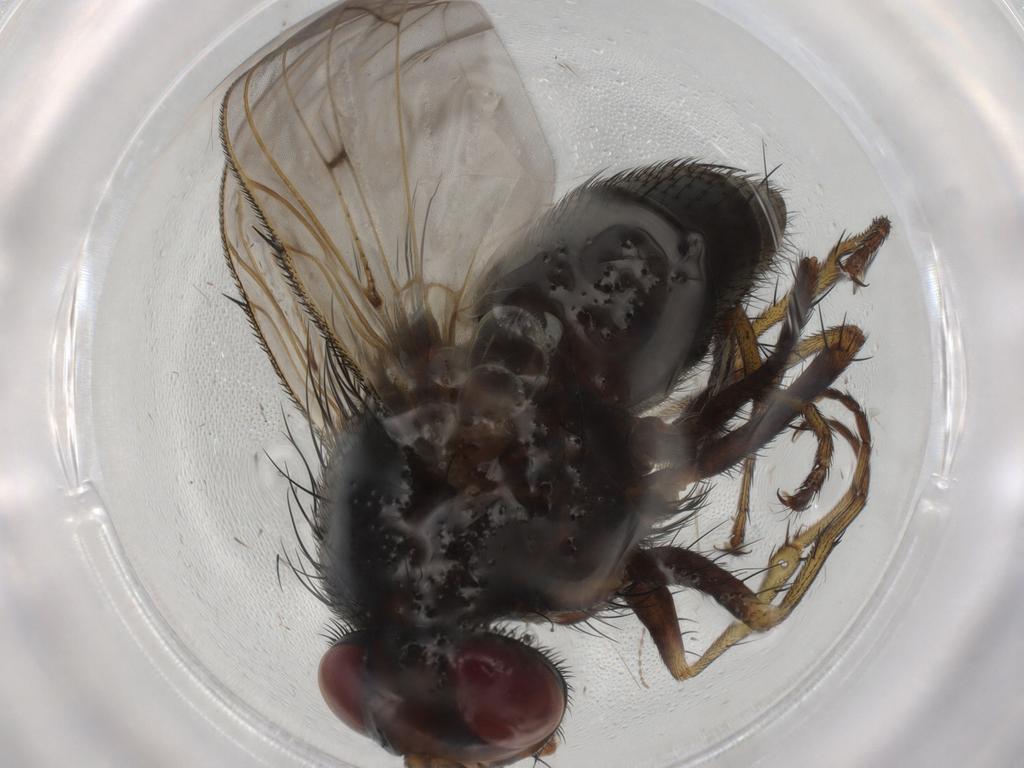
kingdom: Animalia
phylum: Arthropoda
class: Insecta
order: Diptera
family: Tachinidae
